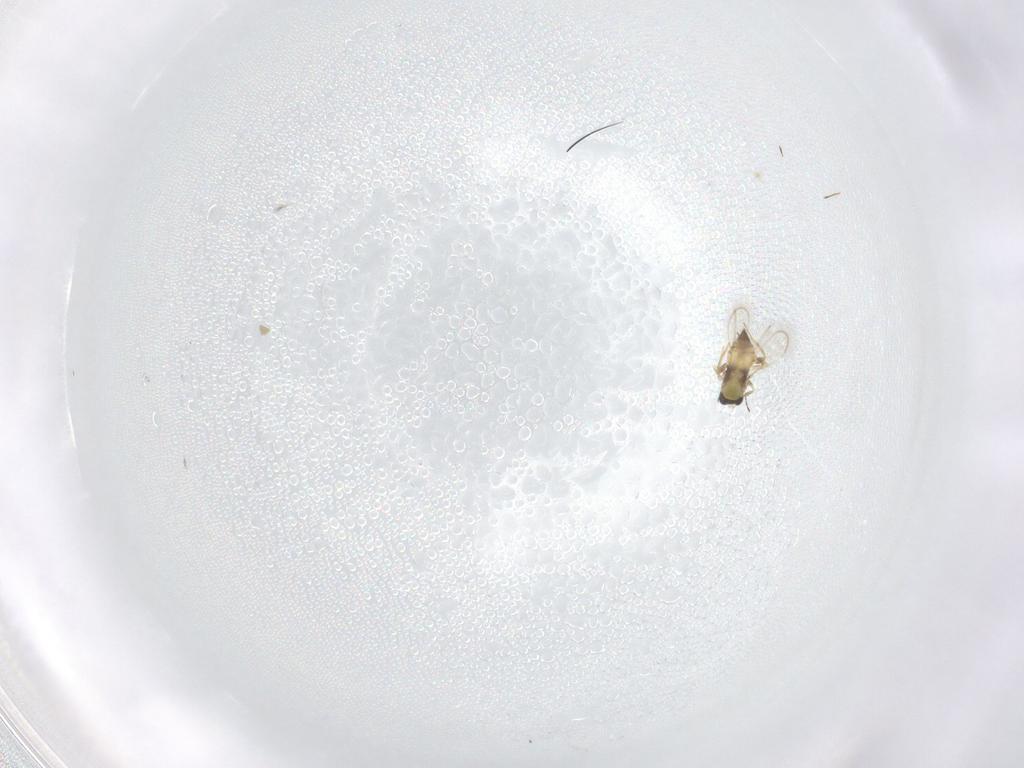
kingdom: Animalia
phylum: Arthropoda
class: Insecta
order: Hymenoptera
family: Trichogrammatidae
